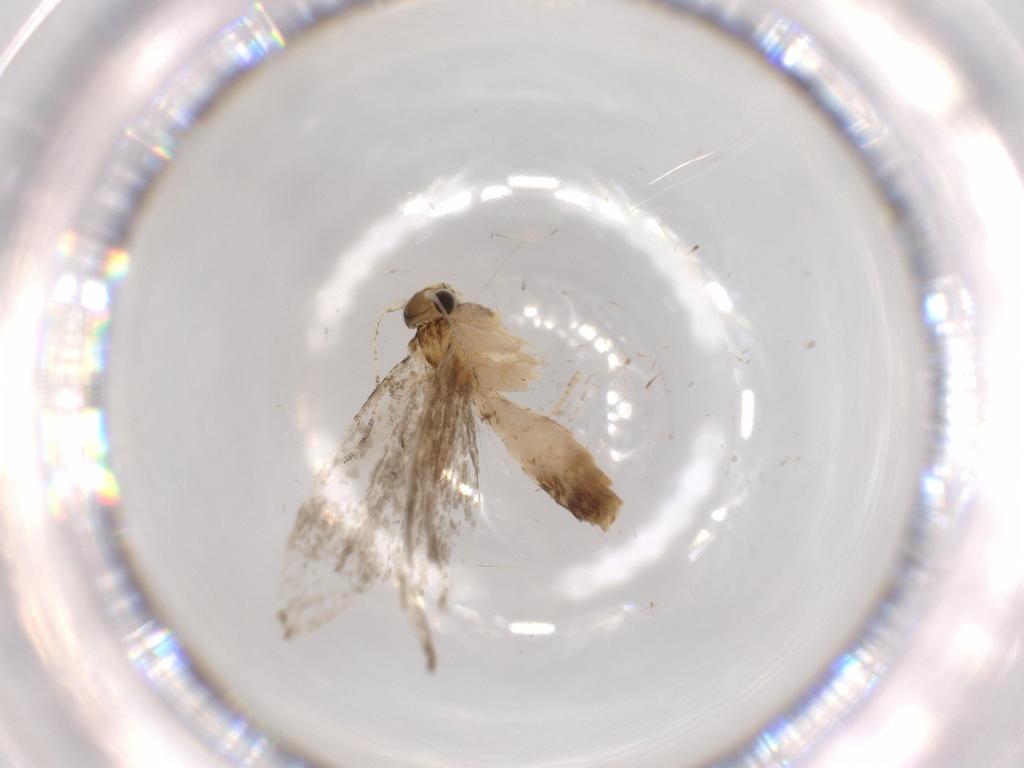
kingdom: Animalia
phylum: Arthropoda
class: Insecta
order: Lepidoptera
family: Tineidae
